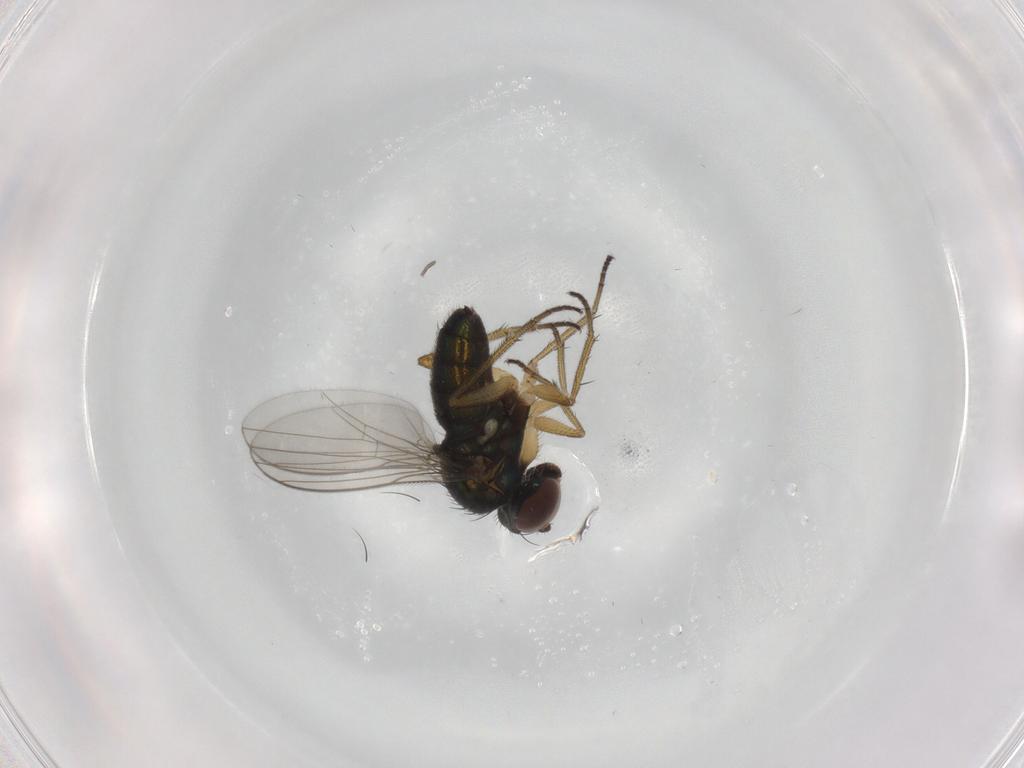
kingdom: Animalia
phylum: Arthropoda
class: Insecta
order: Diptera
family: Dolichopodidae
